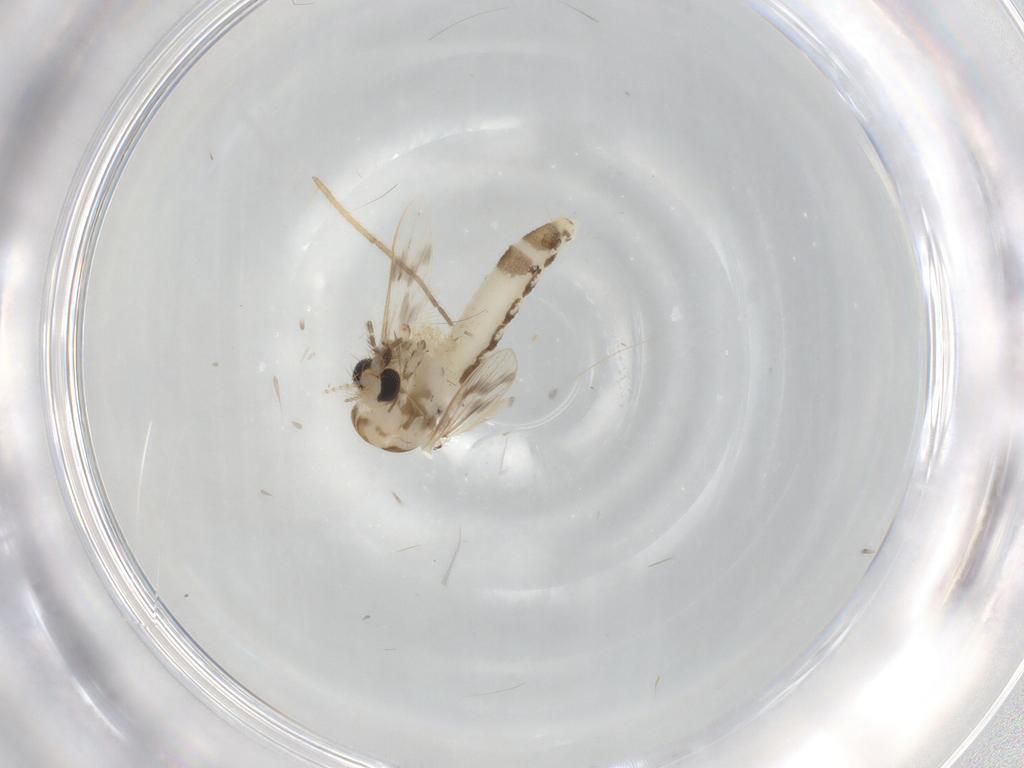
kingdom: Animalia
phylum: Arthropoda
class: Insecta
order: Diptera
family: Corethrellidae
